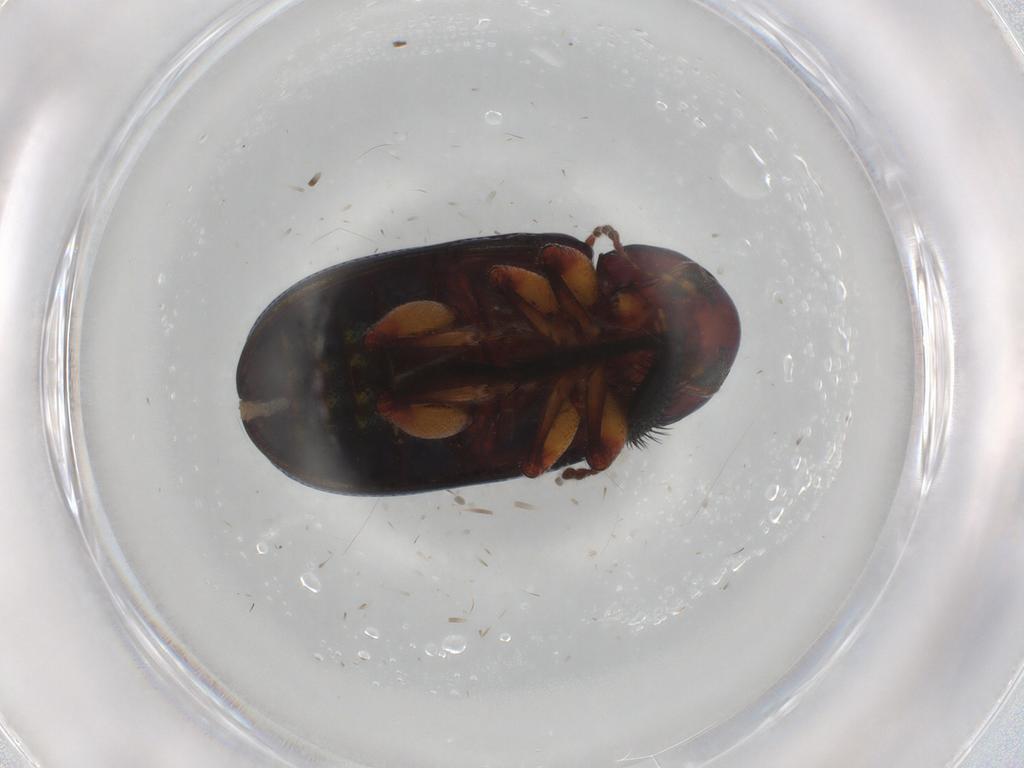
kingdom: Animalia
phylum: Arthropoda
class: Insecta
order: Coleoptera
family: Chrysomelidae
